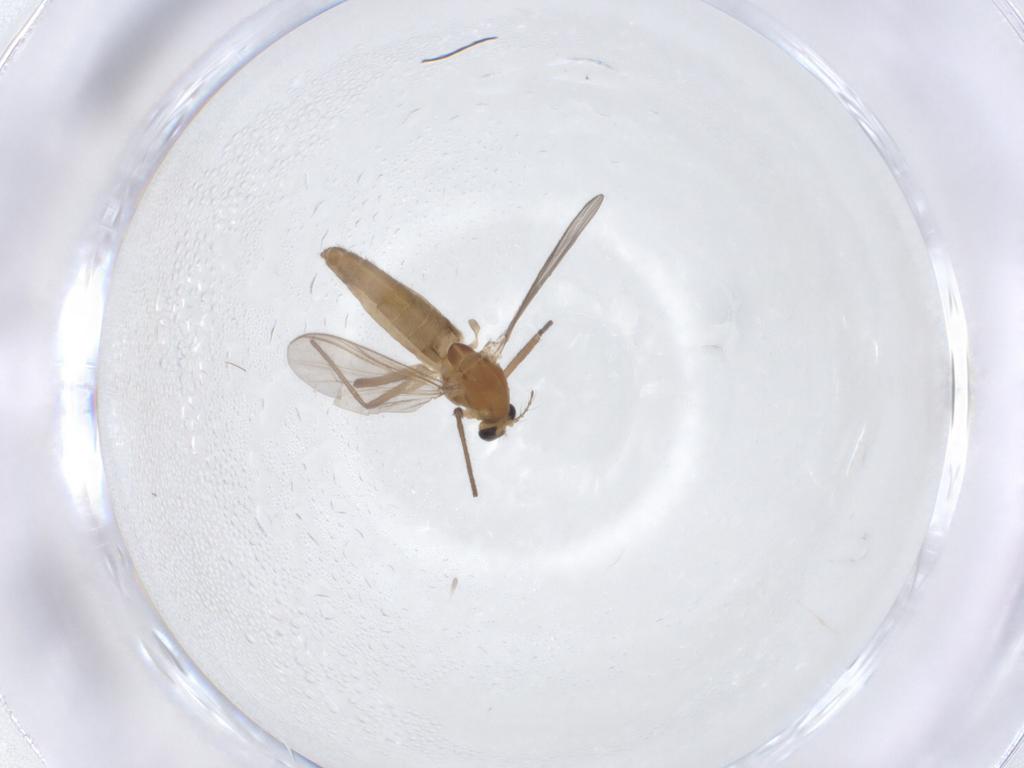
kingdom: Animalia
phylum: Arthropoda
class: Insecta
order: Diptera
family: Chironomidae
